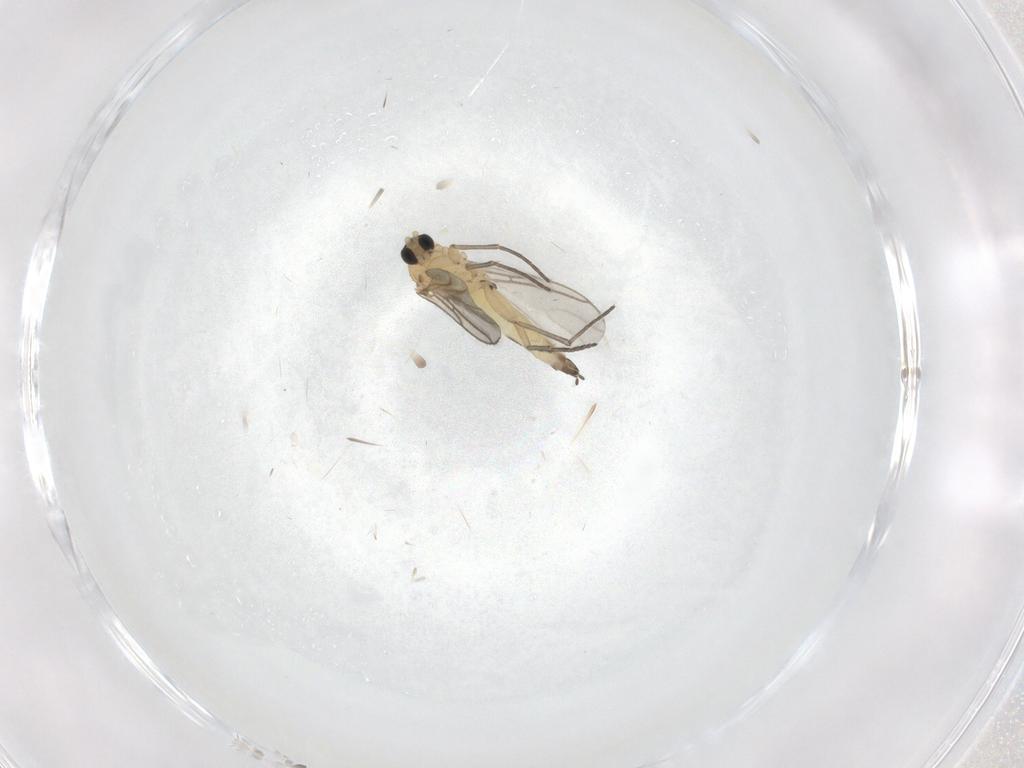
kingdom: Animalia
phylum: Arthropoda
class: Insecta
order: Diptera
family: Sciaridae
